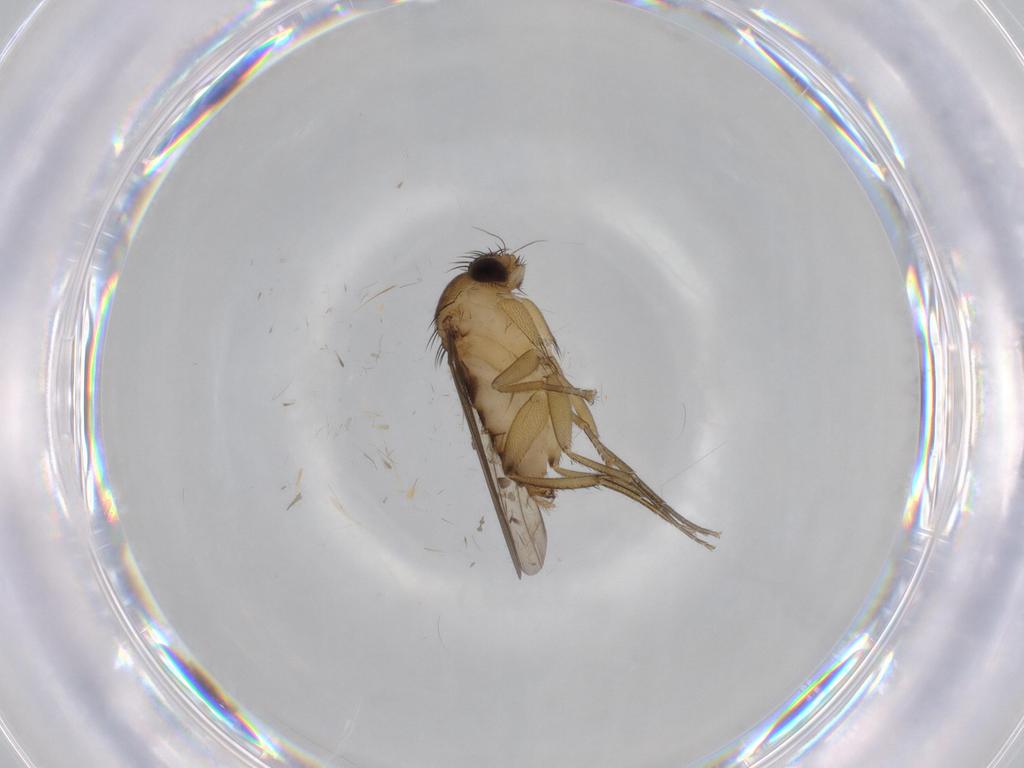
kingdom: Animalia
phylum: Arthropoda
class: Insecta
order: Diptera
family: Phoridae
